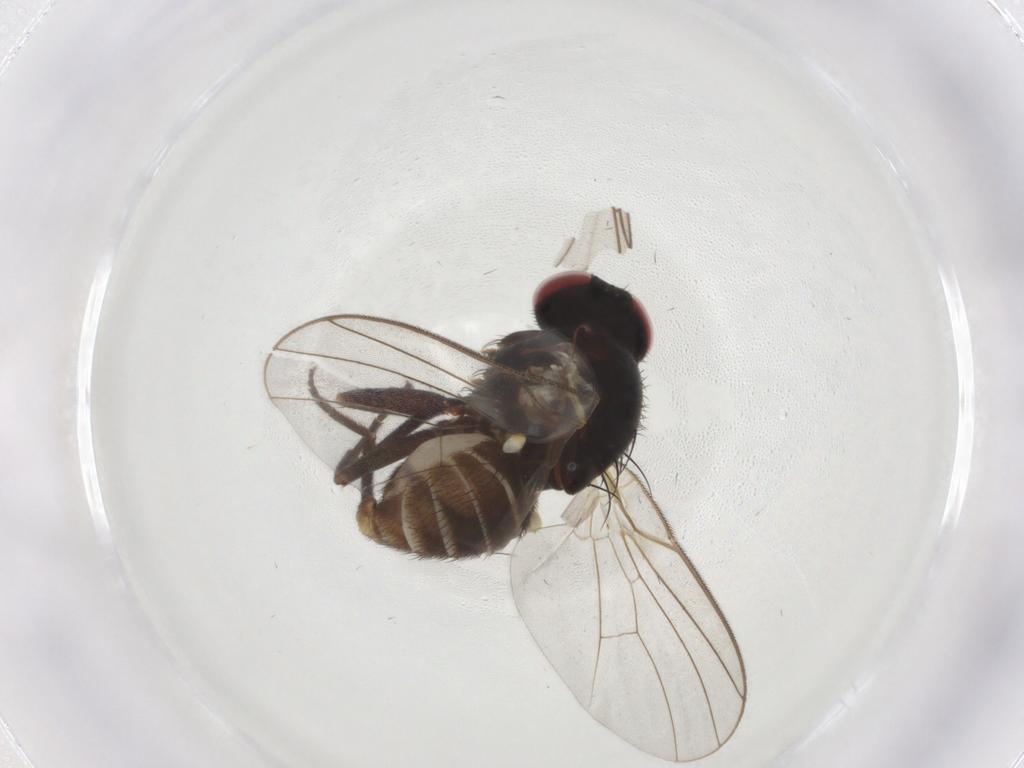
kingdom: Animalia
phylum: Arthropoda
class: Insecta
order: Diptera
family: Agromyzidae
